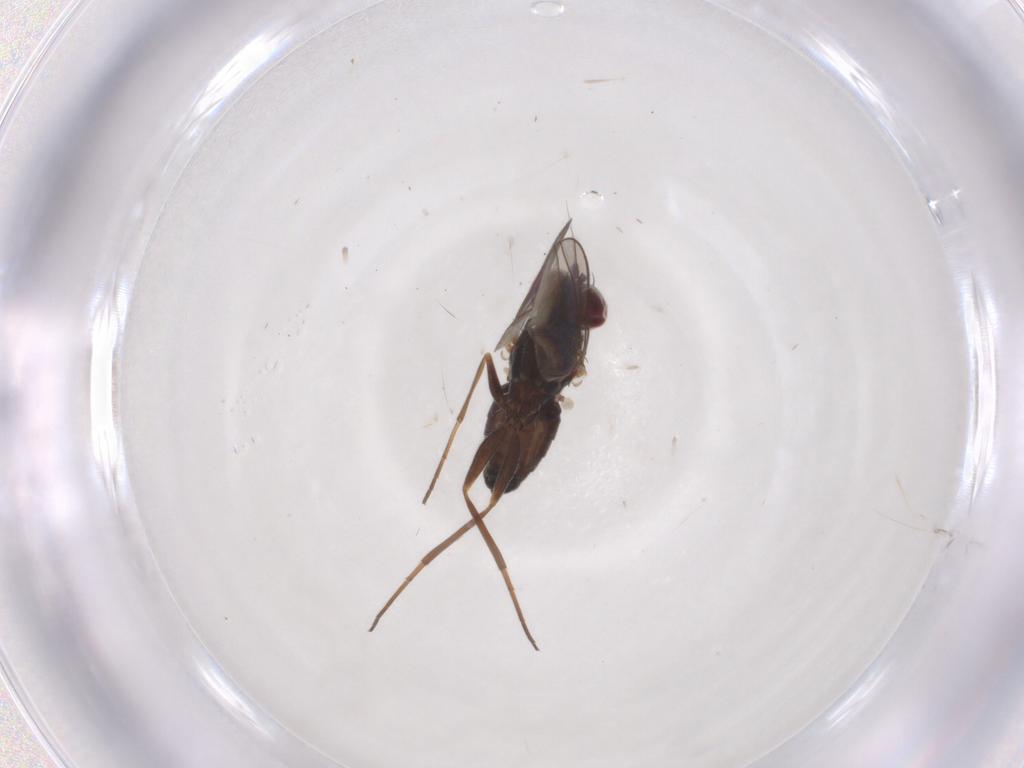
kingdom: Animalia
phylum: Arthropoda
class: Insecta
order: Diptera
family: Dolichopodidae
